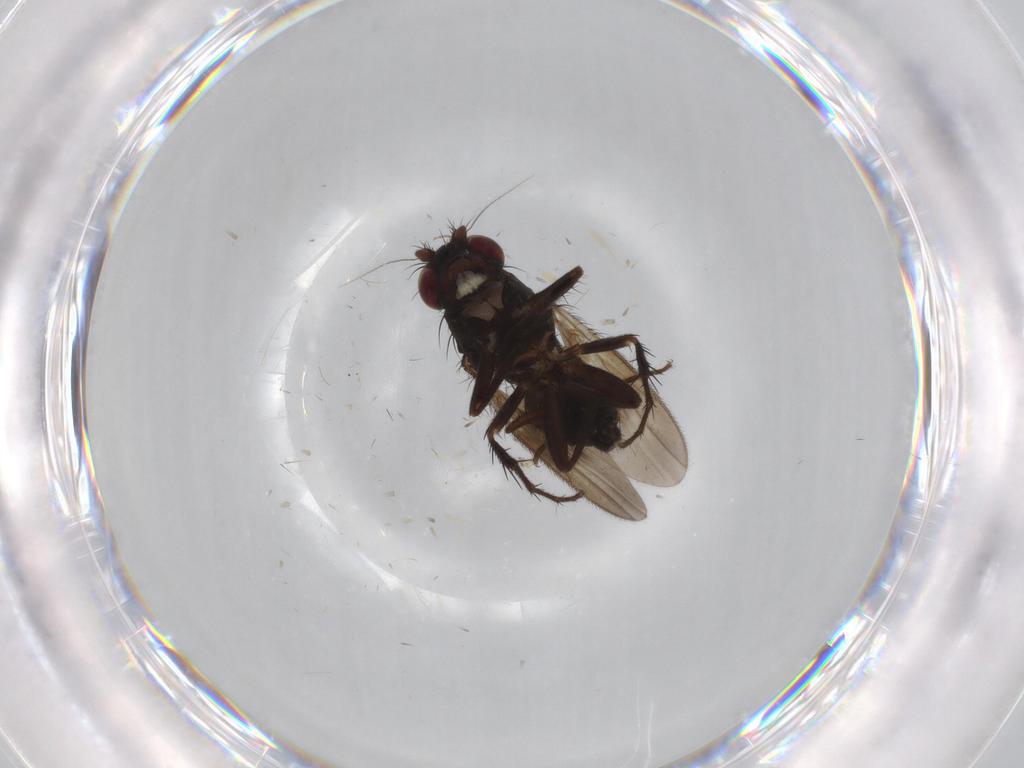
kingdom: Animalia
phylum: Arthropoda
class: Insecta
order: Diptera
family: Cecidomyiidae
